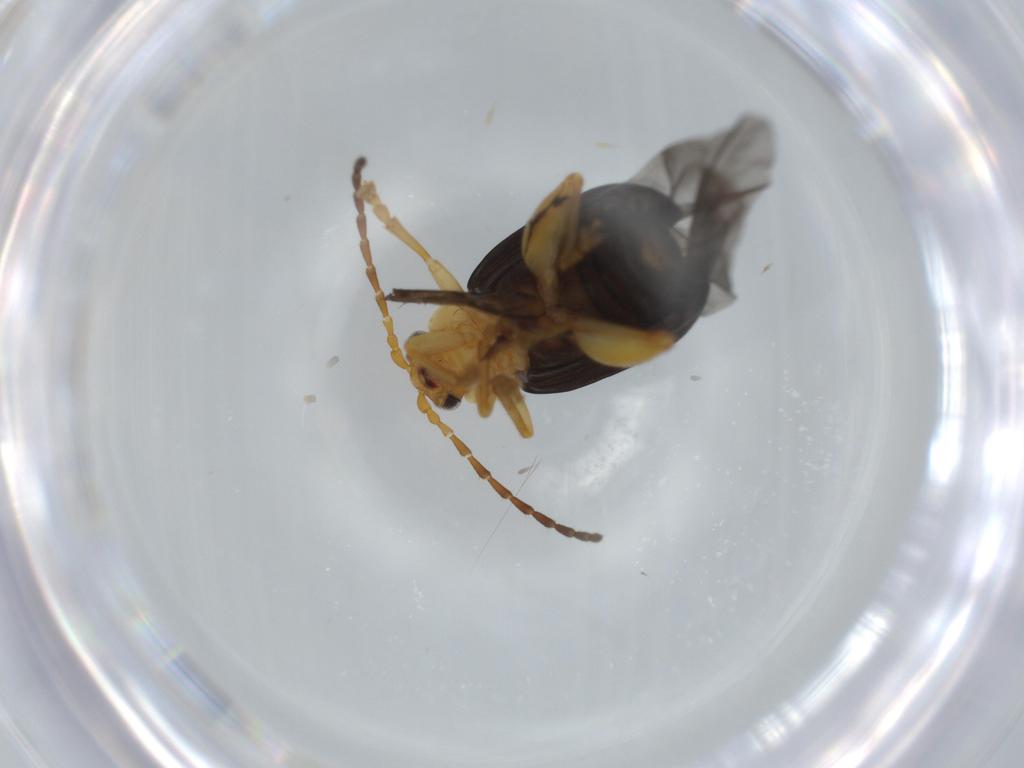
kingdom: Animalia
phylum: Arthropoda
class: Insecta
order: Coleoptera
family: Chrysomelidae
